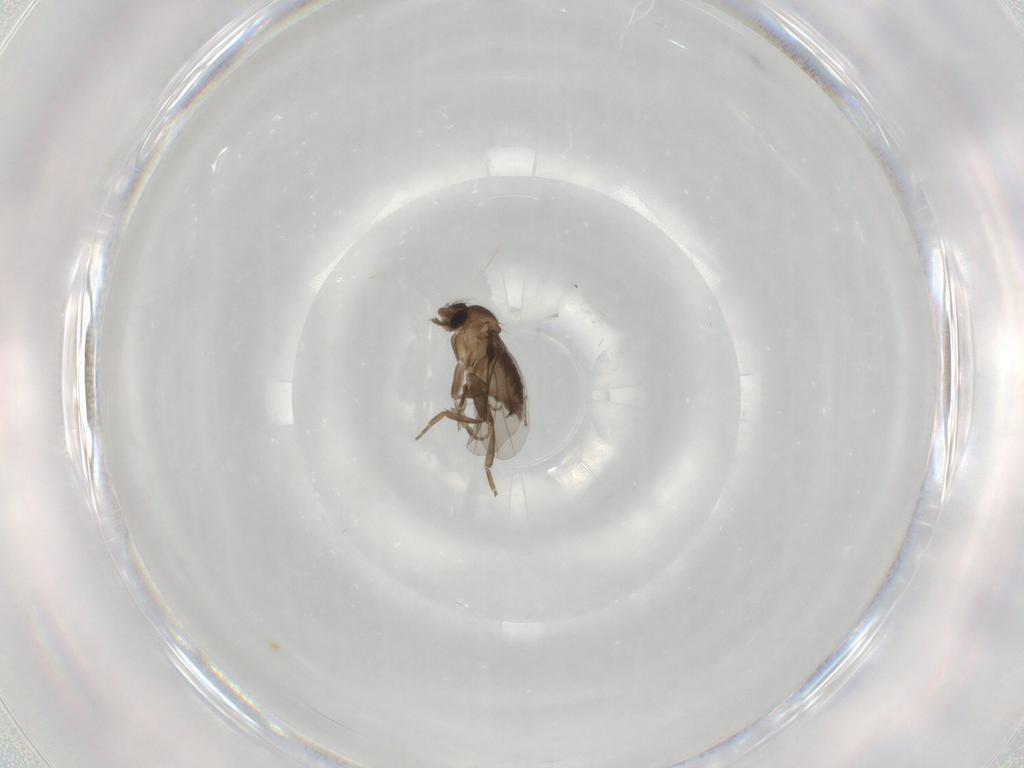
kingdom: Animalia
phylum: Arthropoda
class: Insecta
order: Diptera
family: Phoridae
